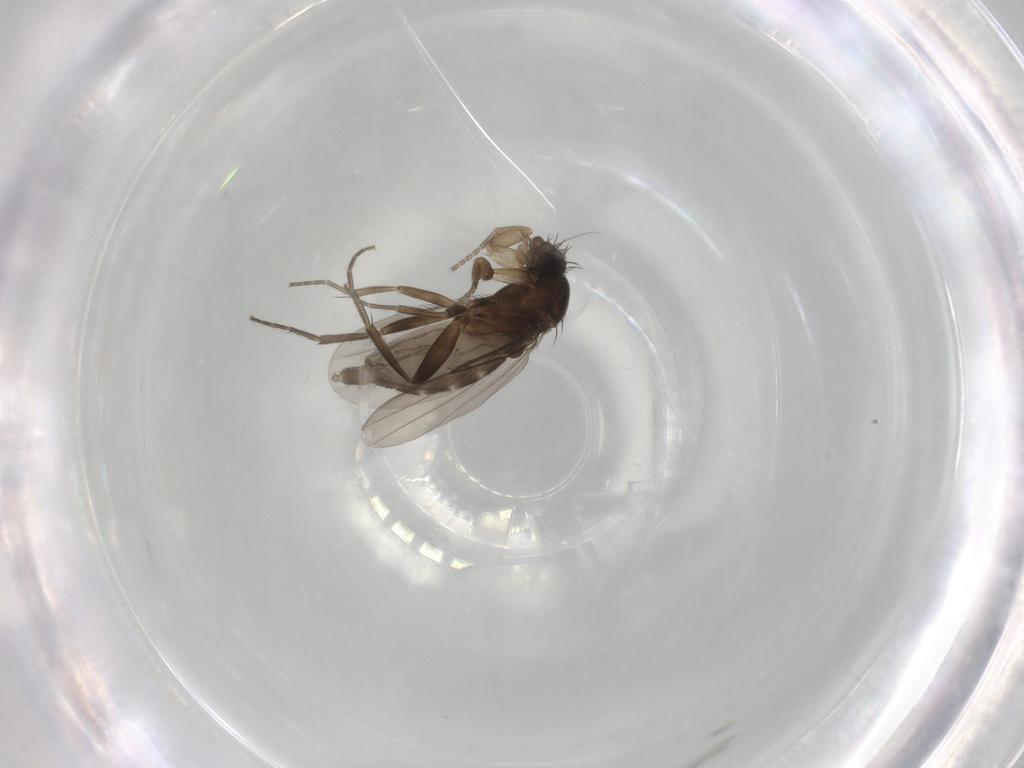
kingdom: Animalia
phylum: Arthropoda
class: Insecta
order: Diptera
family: Phoridae
